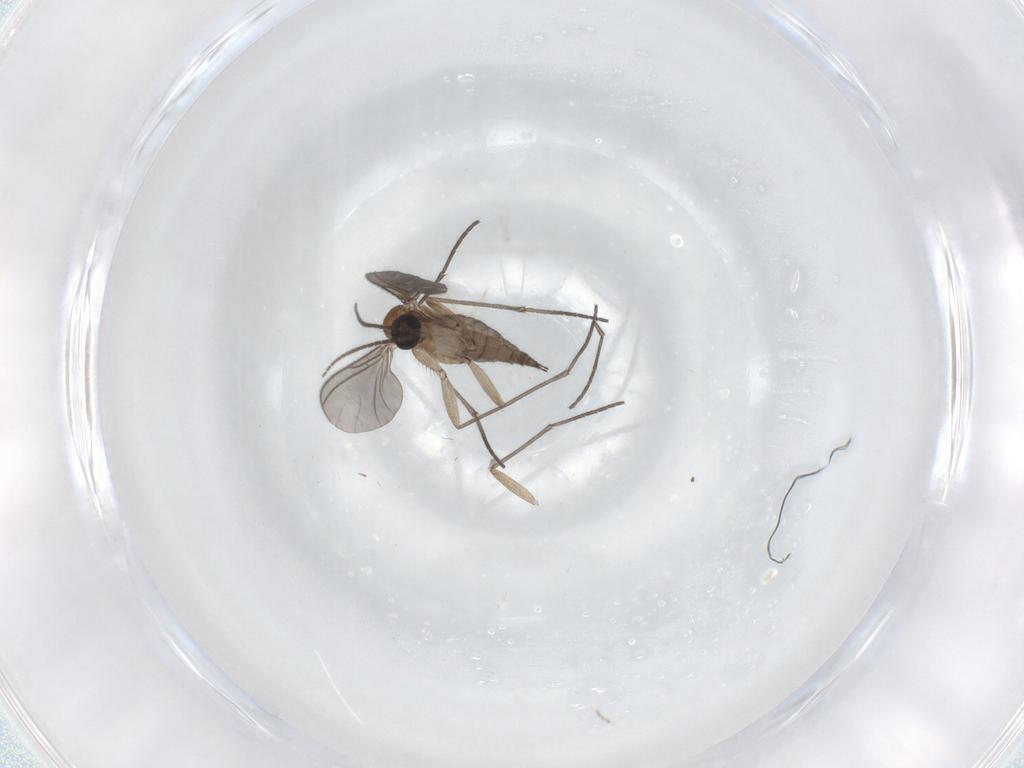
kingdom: Animalia
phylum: Arthropoda
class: Insecta
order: Diptera
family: Sciaridae
